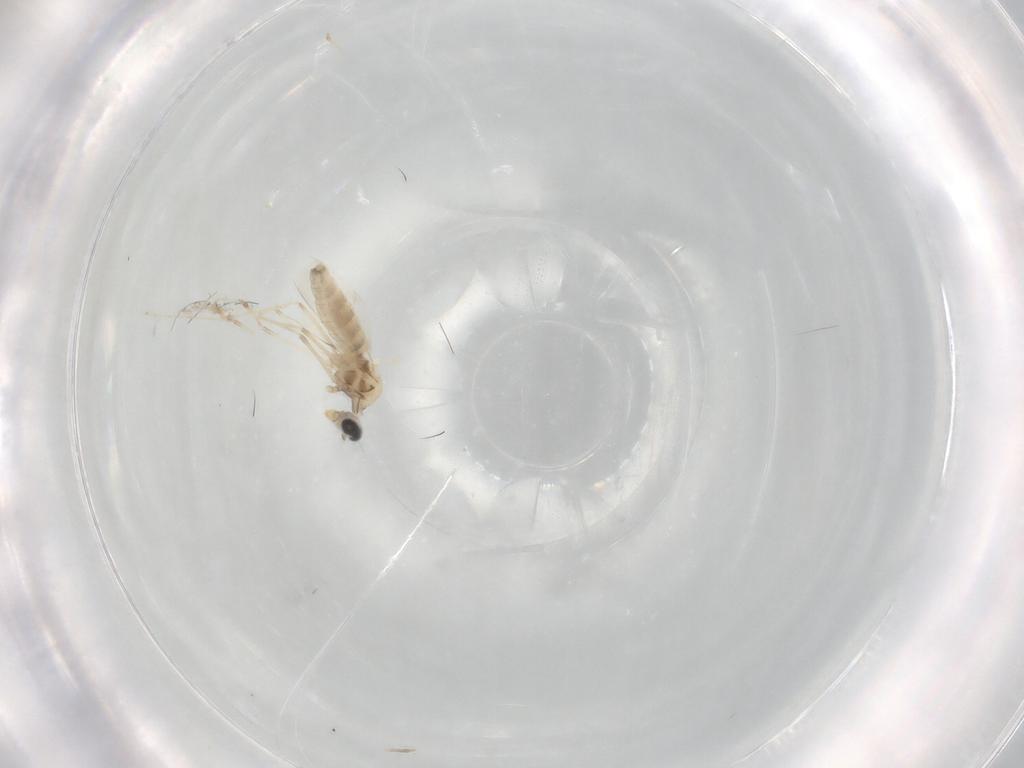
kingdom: Animalia
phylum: Arthropoda
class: Insecta
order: Diptera
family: Cecidomyiidae
